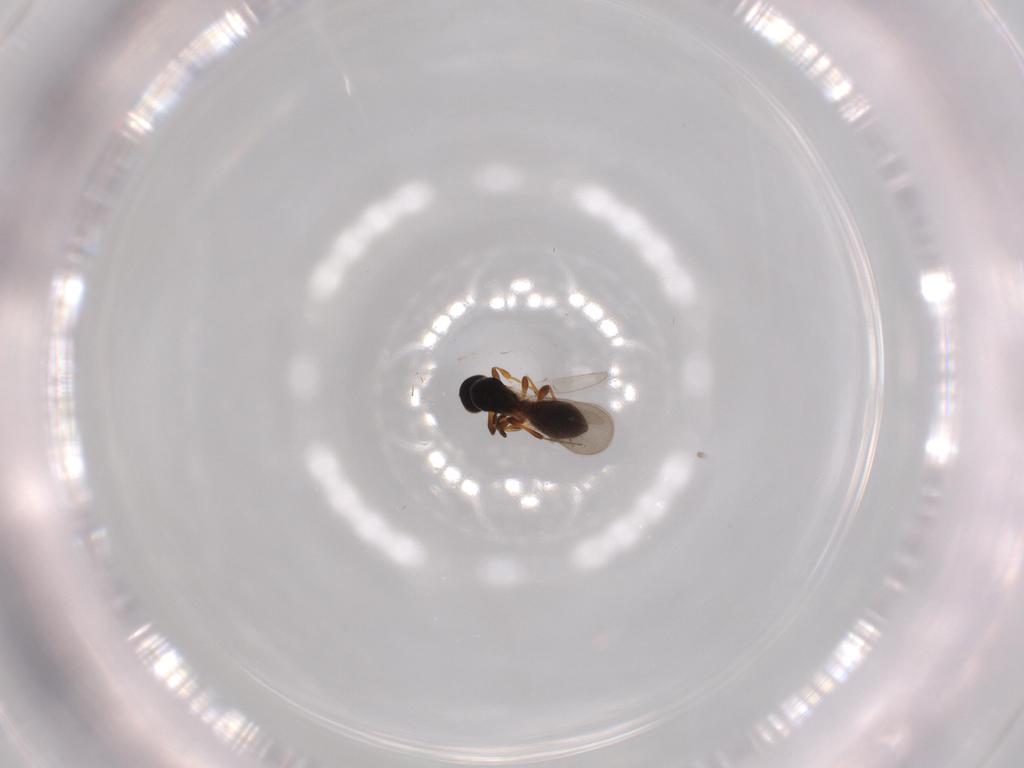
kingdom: Animalia
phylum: Arthropoda
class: Insecta
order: Hymenoptera
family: Platygastridae
